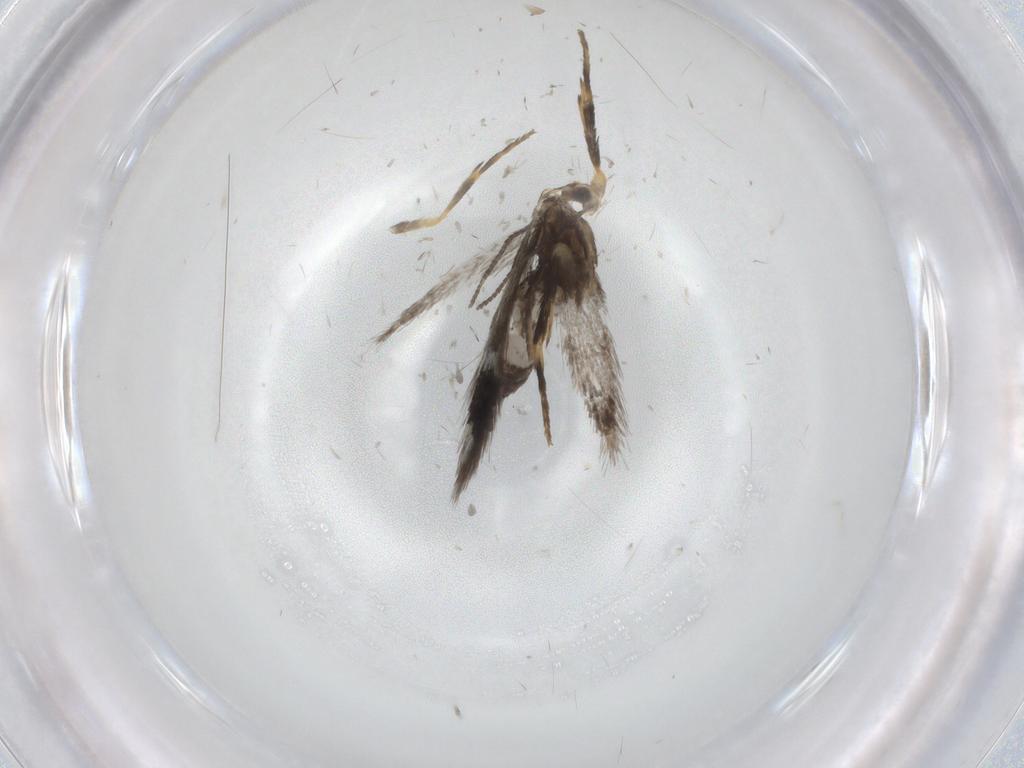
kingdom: Animalia
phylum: Arthropoda
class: Insecta
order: Lepidoptera
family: Nepticulidae
